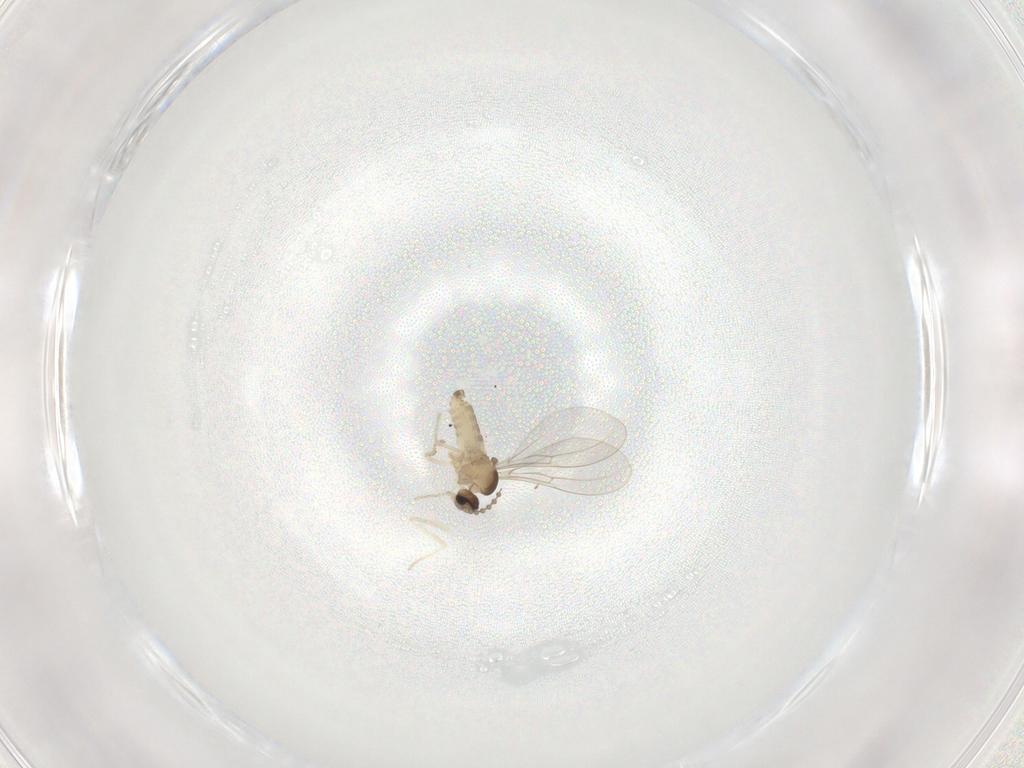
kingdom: Animalia
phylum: Arthropoda
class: Insecta
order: Diptera
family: Cecidomyiidae
